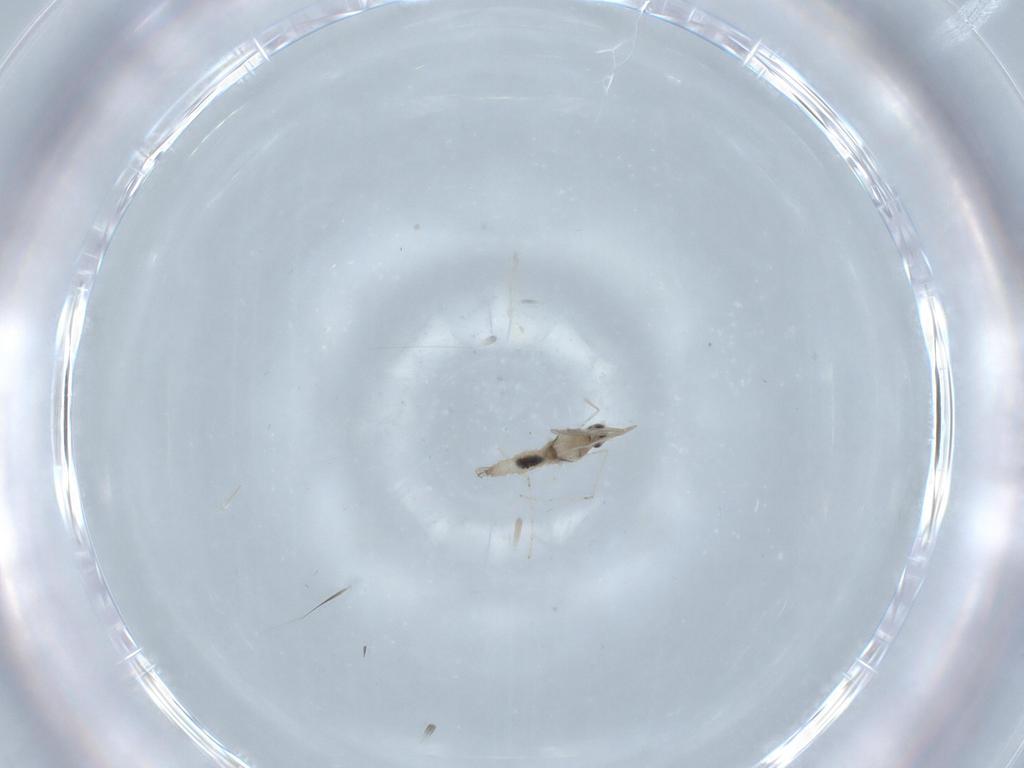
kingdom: Animalia
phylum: Arthropoda
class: Insecta
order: Diptera
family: Cecidomyiidae
